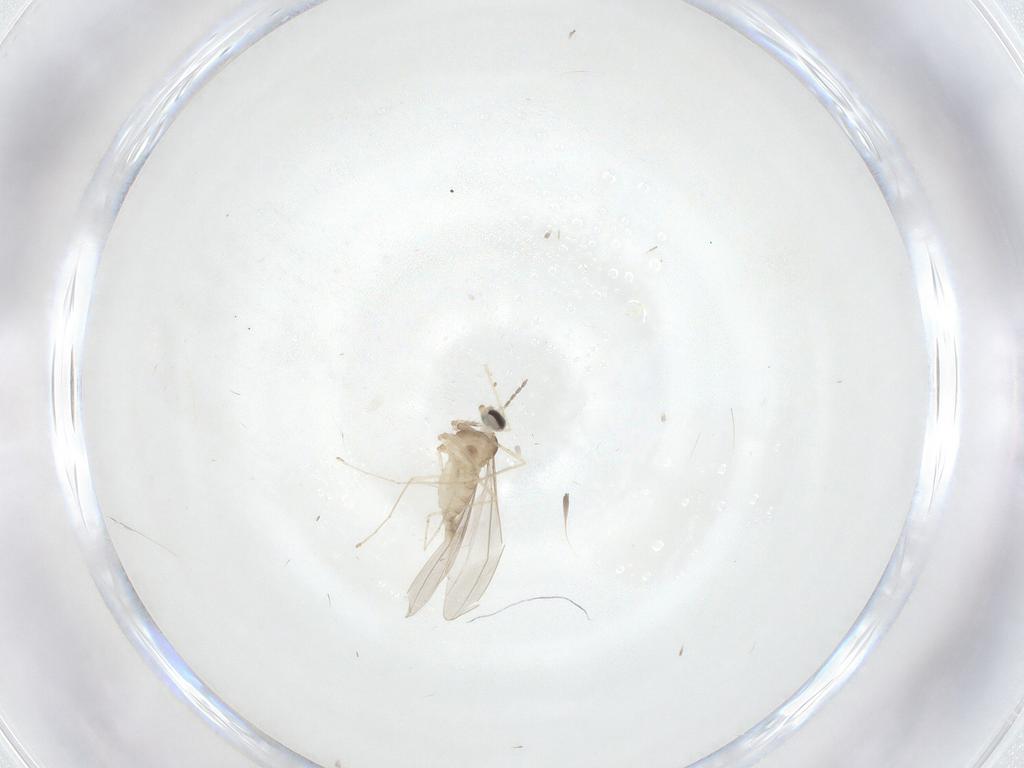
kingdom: Animalia
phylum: Arthropoda
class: Insecta
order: Diptera
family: Cecidomyiidae
